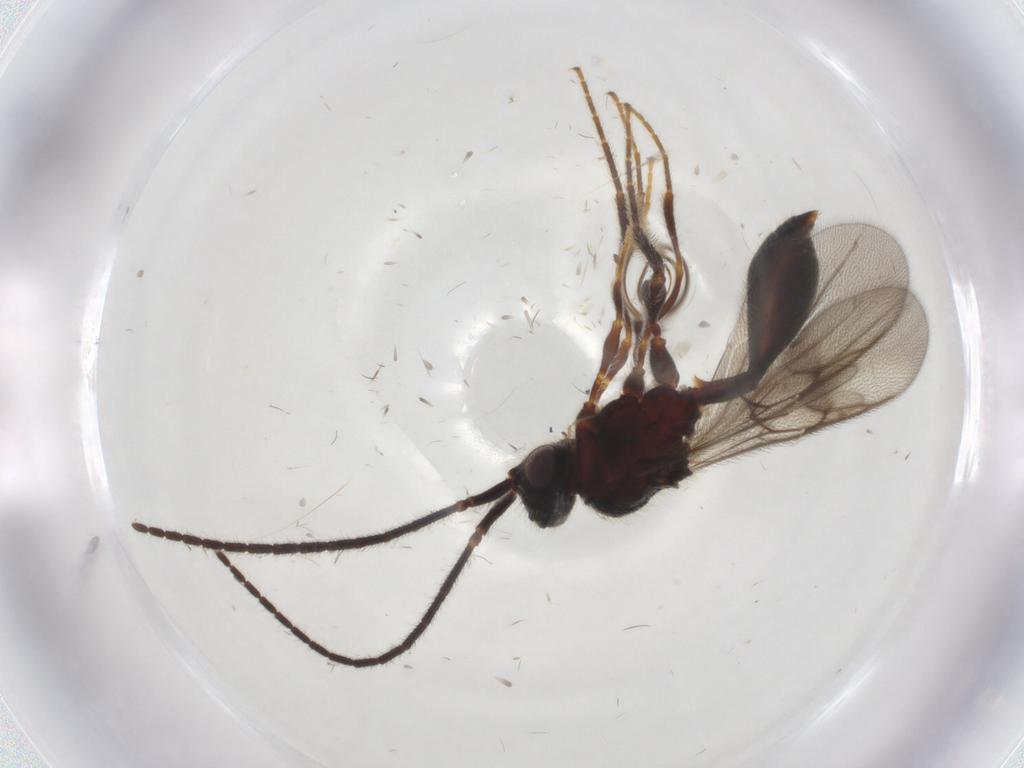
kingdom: Animalia
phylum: Arthropoda
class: Insecta
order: Hymenoptera
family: Diapriidae
